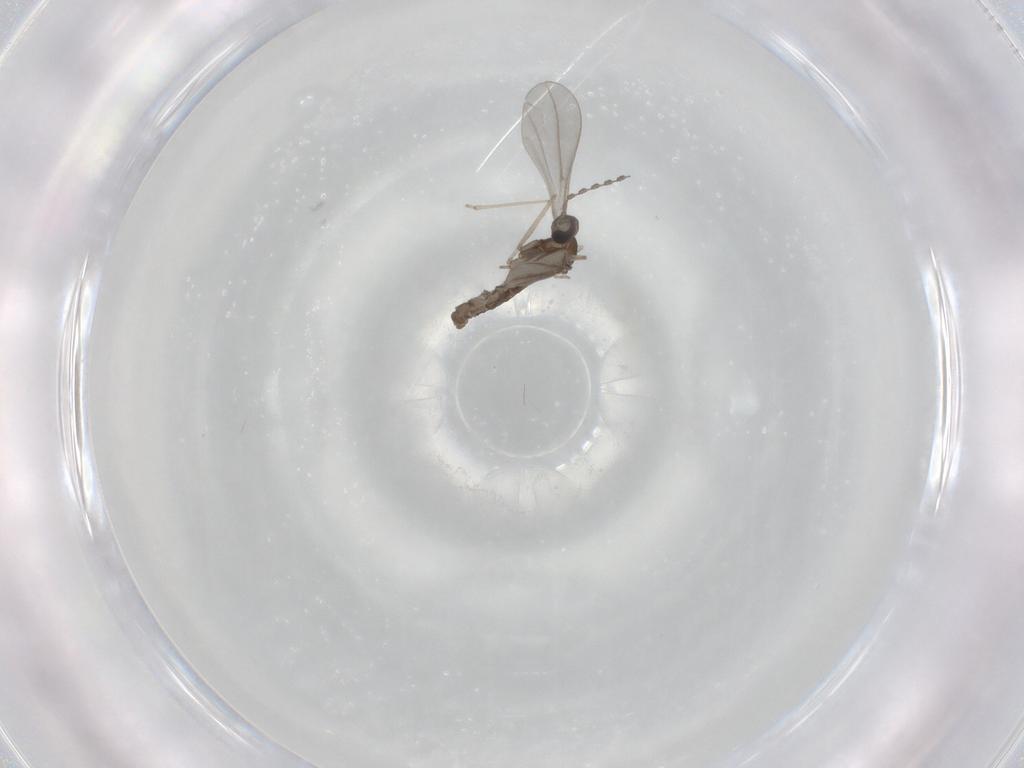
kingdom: Animalia
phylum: Arthropoda
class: Insecta
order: Diptera
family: Mycetophilidae
